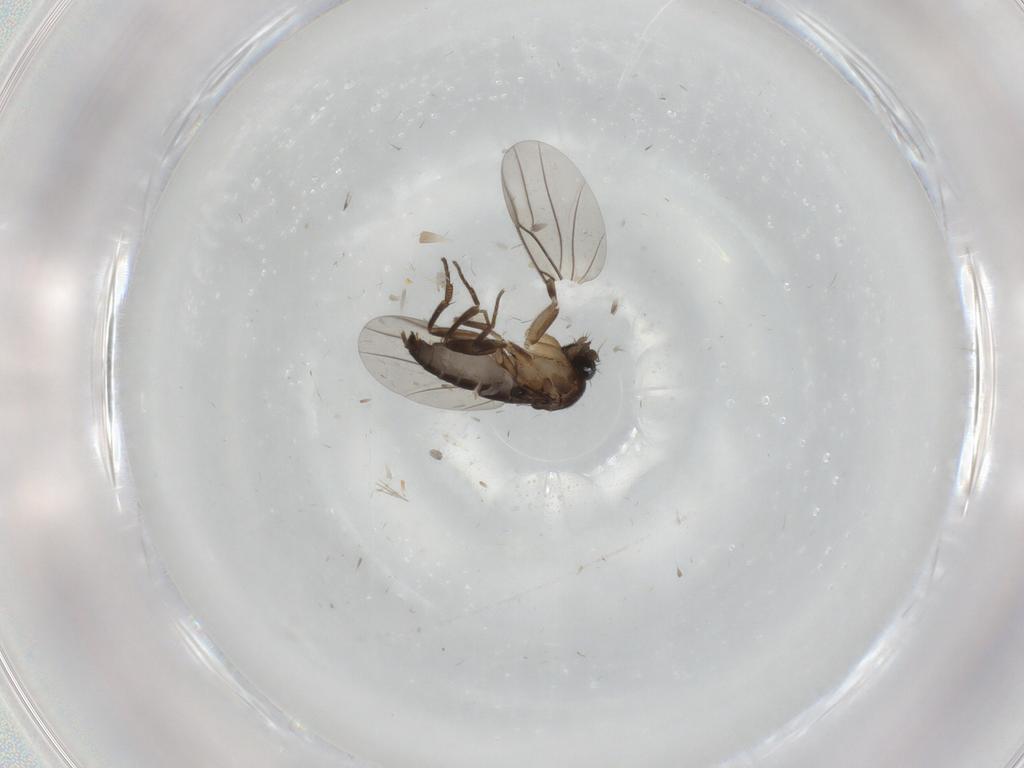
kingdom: Animalia
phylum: Arthropoda
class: Insecta
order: Diptera
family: Phoridae
